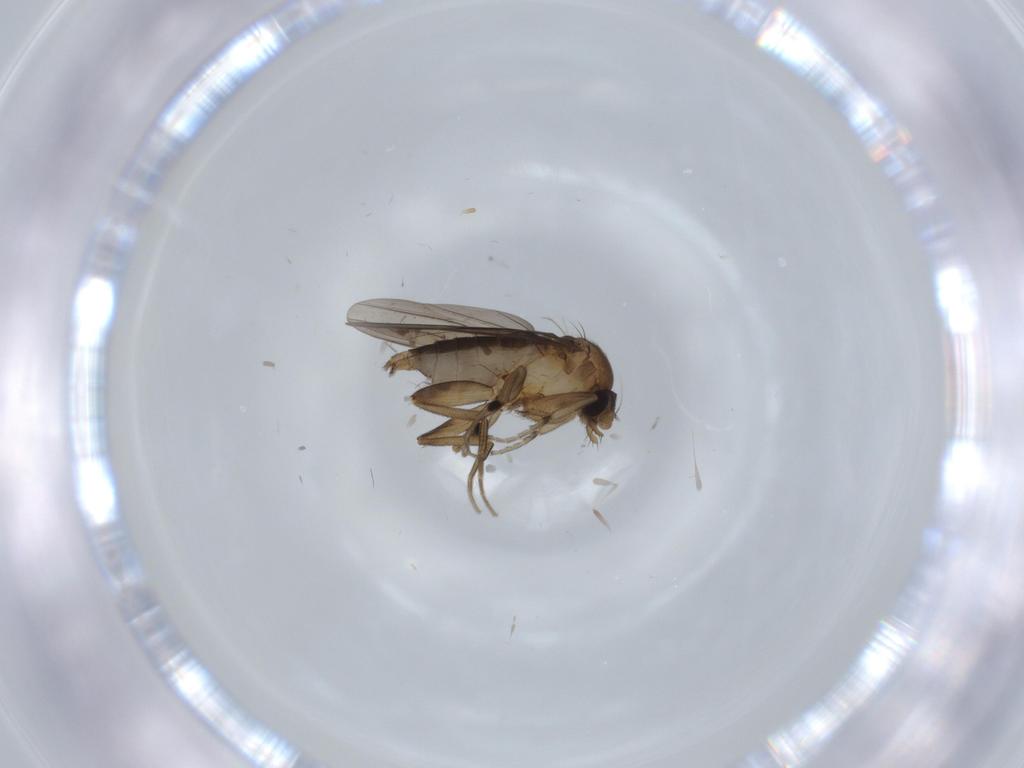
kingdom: Animalia
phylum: Arthropoda
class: Insecta
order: Diptera
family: Phoridae
